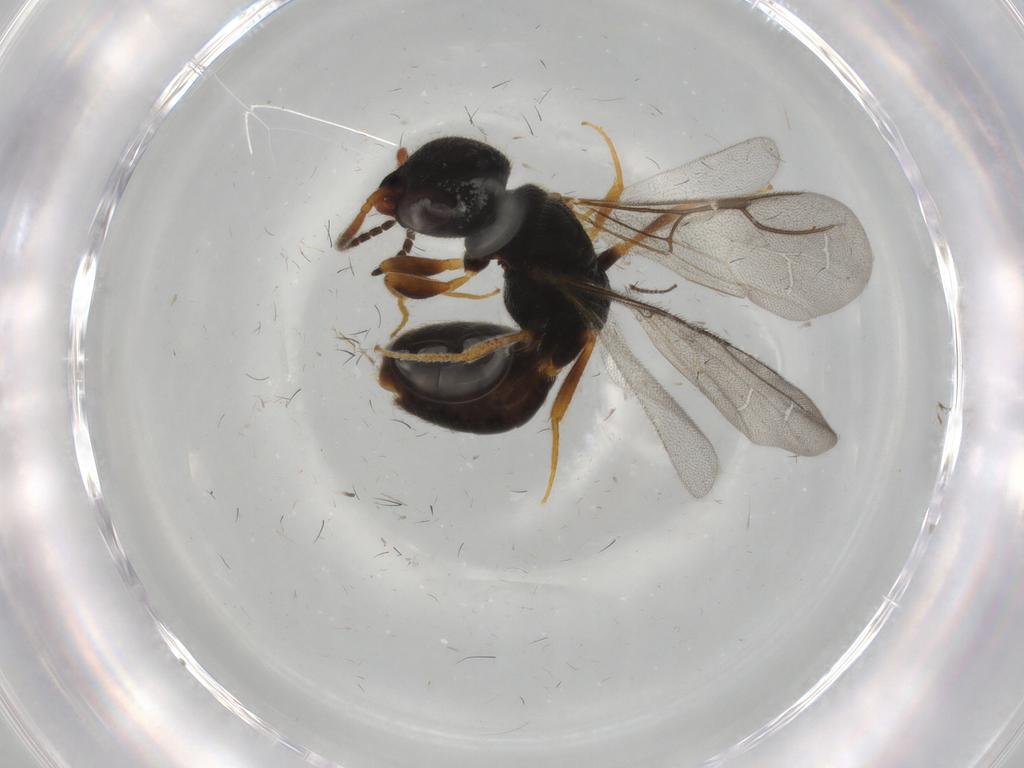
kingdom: Animalia
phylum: Arthropoda
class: Insecta
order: Hymenoptera
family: Bethylidae
